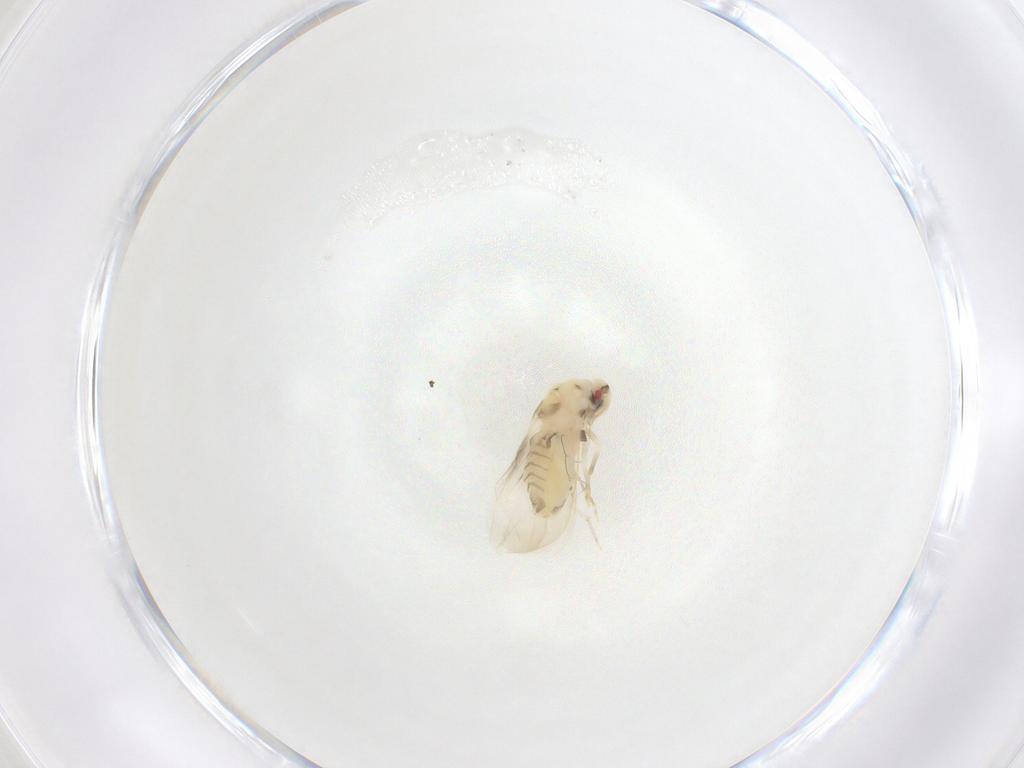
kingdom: Animalia
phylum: Arthropoda
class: Insecta
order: Hemiptera
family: Aleyrodidae
